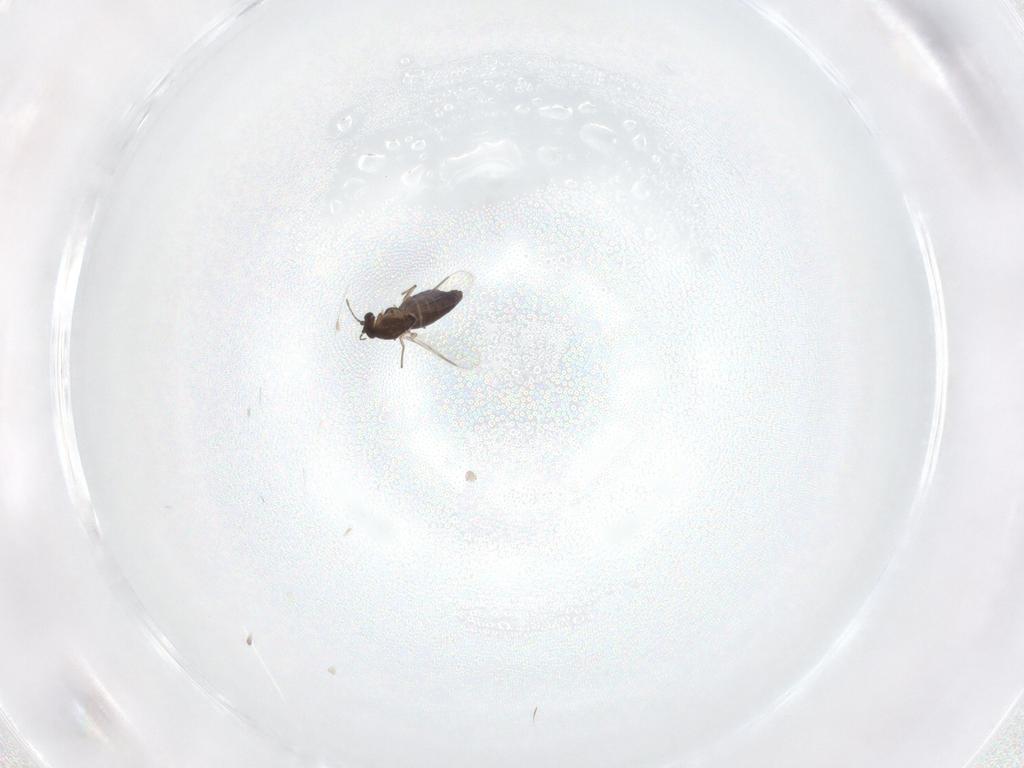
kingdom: Animalia
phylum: Arthropoda
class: Insecta
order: Diptera
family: Chironomidae
